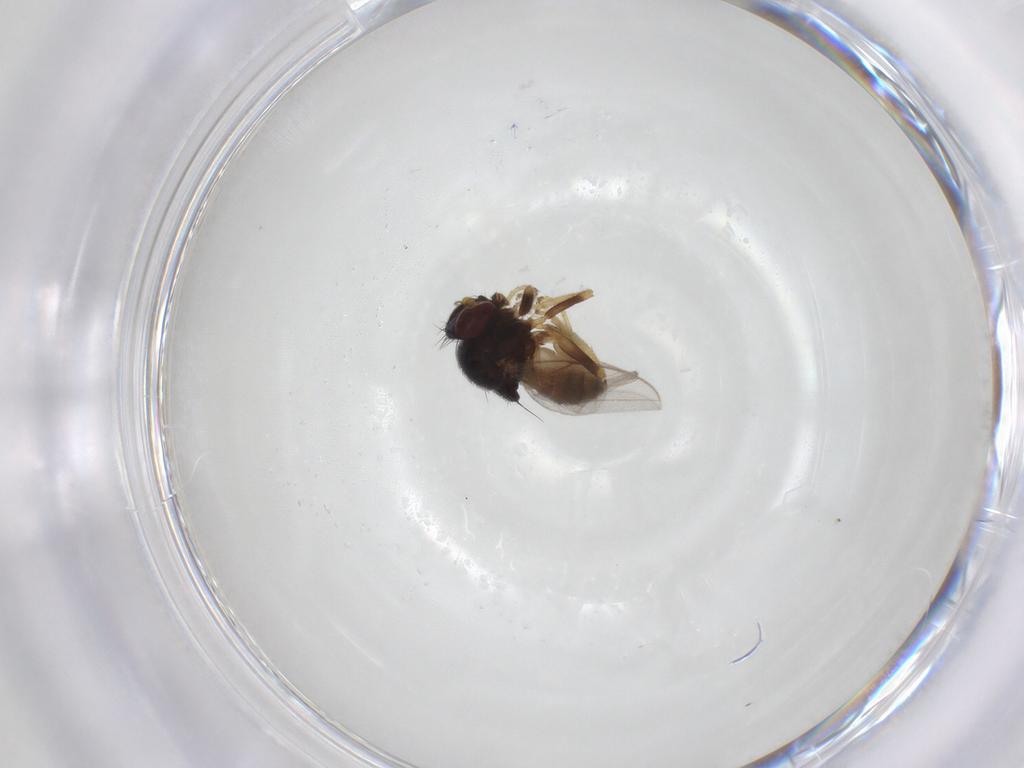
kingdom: Animalia
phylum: Arthropoda
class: Insecta
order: Diptera
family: Chloropidae
